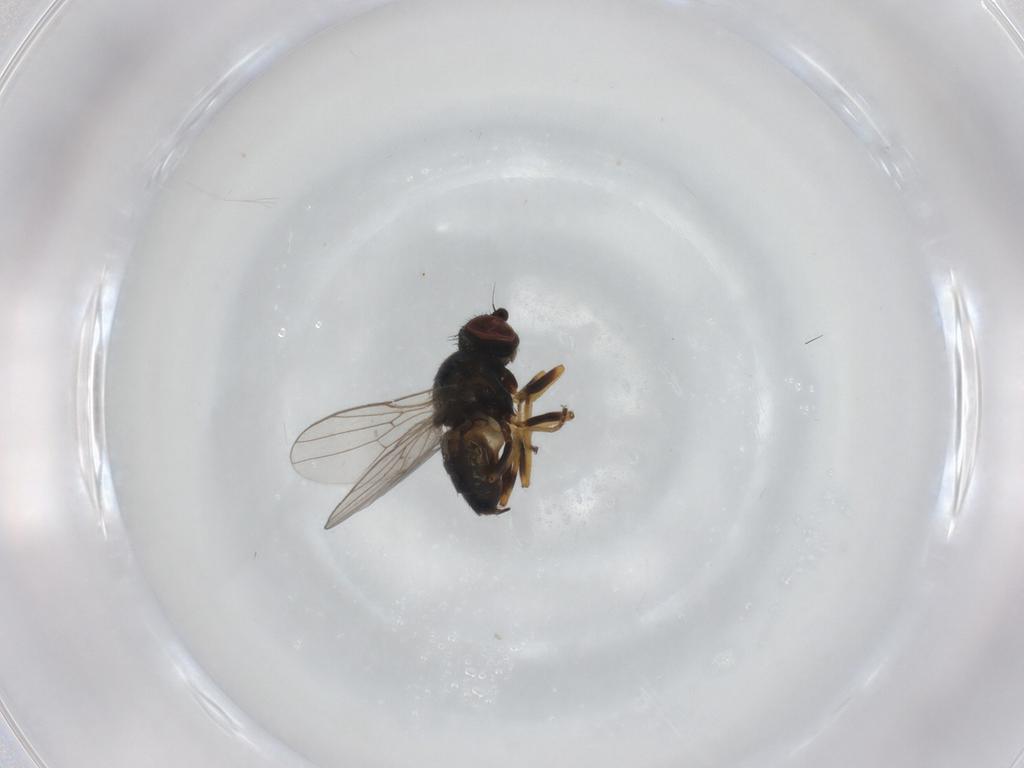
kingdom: Animalia
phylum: Arthropoda
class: Insecta
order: Diptera
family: Chloropidae
